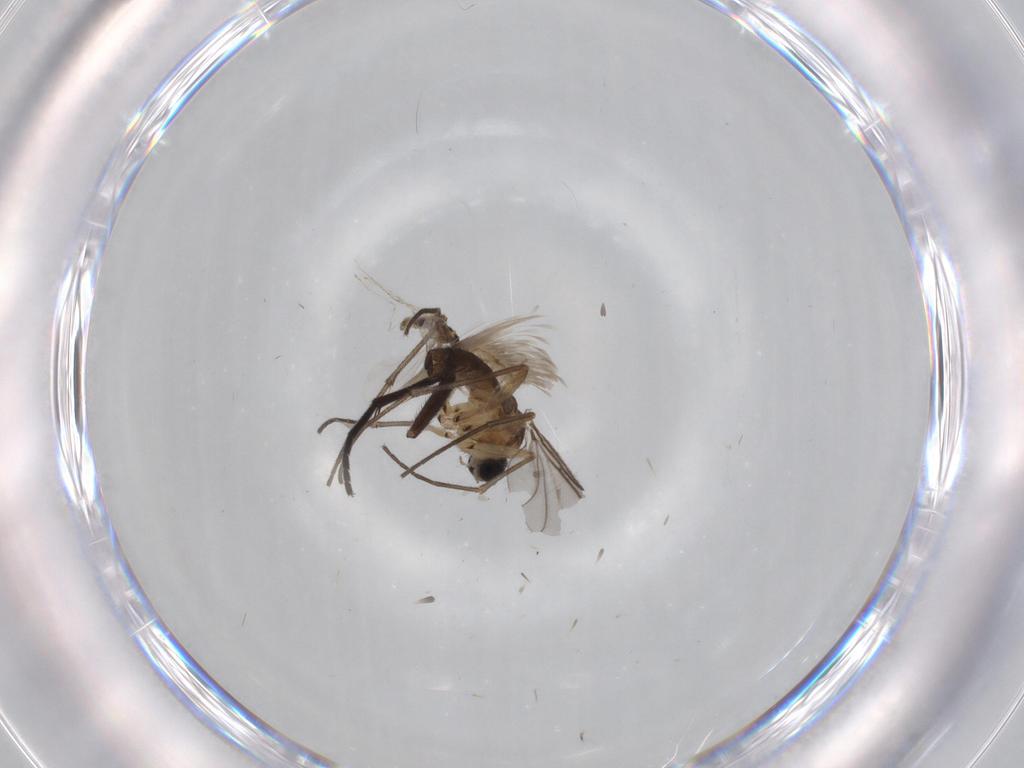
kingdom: Animalia
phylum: Arthropoda
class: Insecta
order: Diptera
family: Sciaridae
